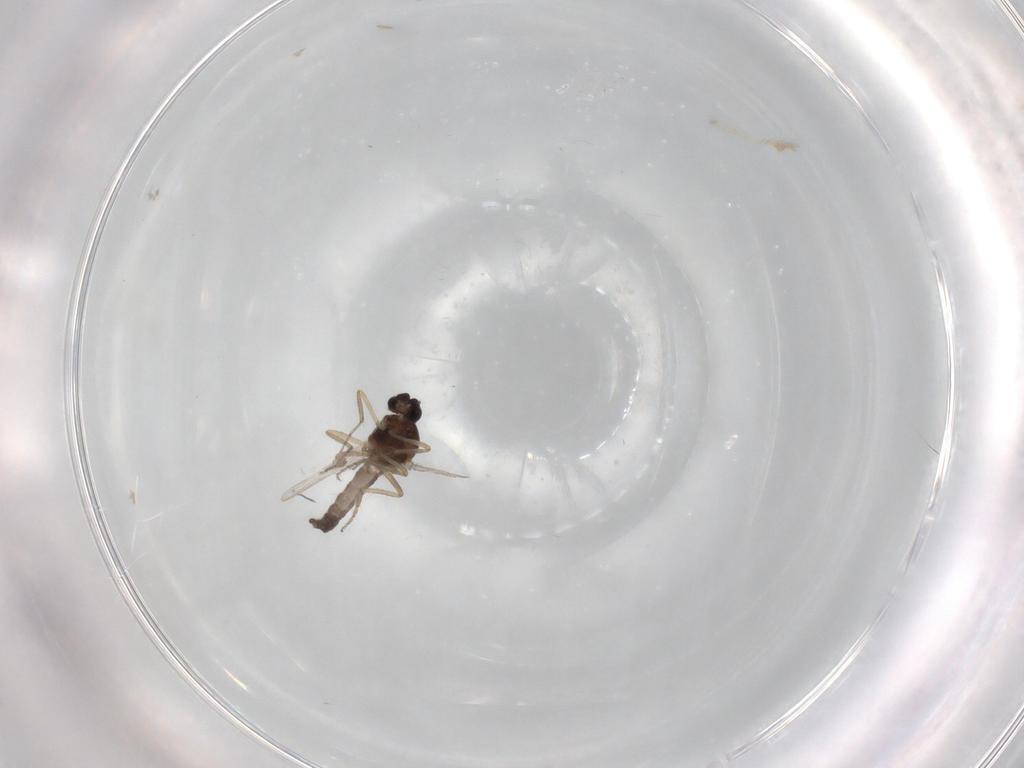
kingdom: Animalia
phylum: Arthropoda
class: Insecta
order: Diptera
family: Ceratopogonidae
